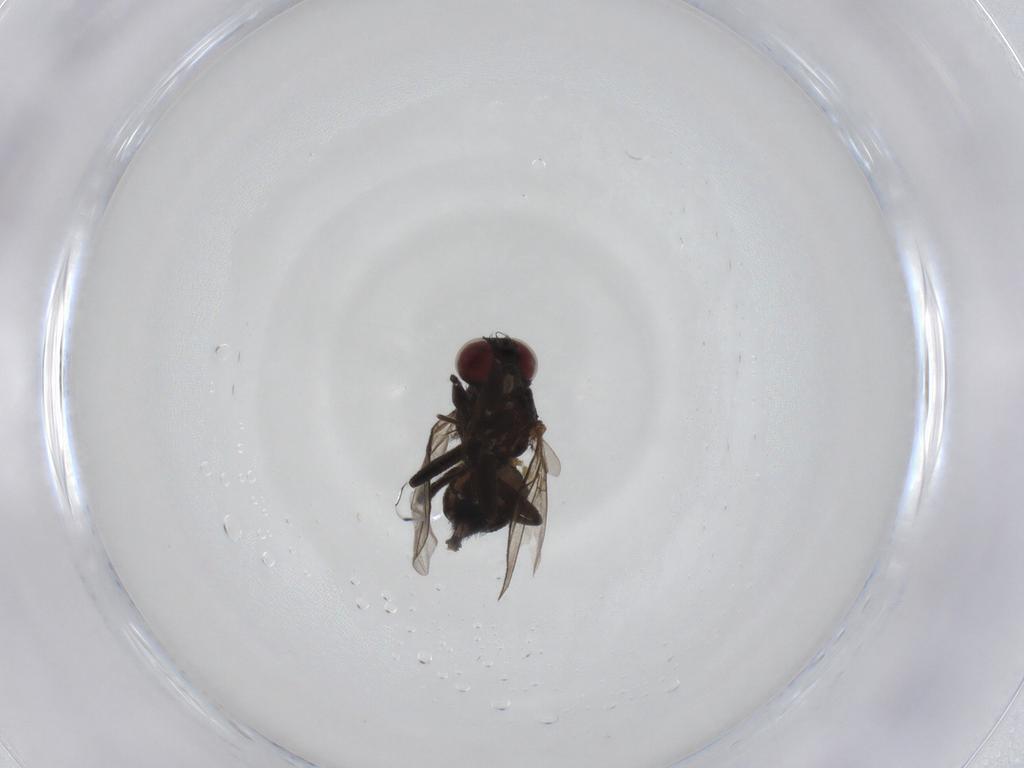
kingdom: Animalia
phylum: Arthropoda
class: Insecta
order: Diptera
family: Agromyzidae
